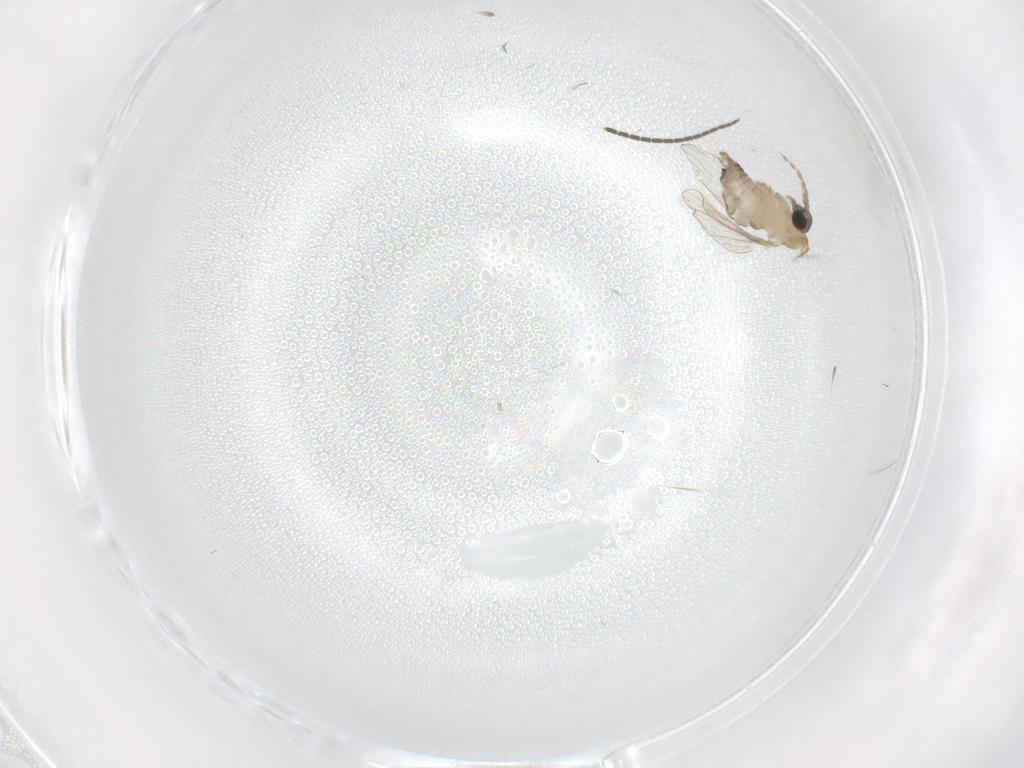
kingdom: Animalia
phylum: Arthropoda
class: Insecta
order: Diptera
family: Psychodidae
